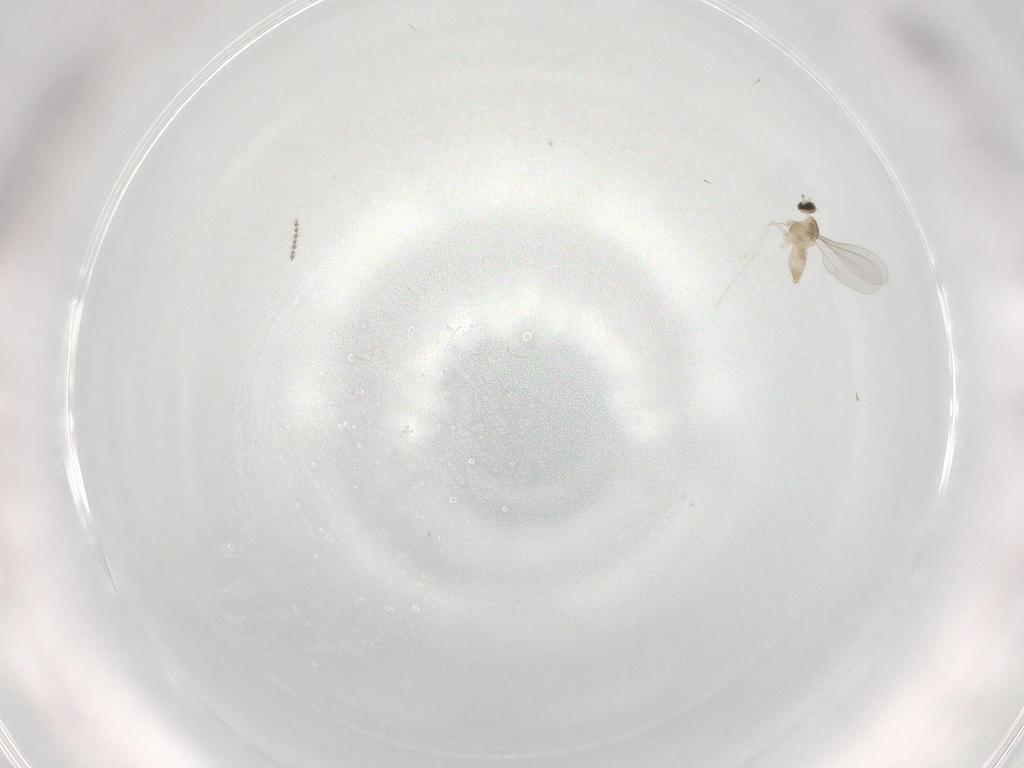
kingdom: Animalia
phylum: Arthropoda
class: Insecta
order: Diptera
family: Cecidomyiidae
